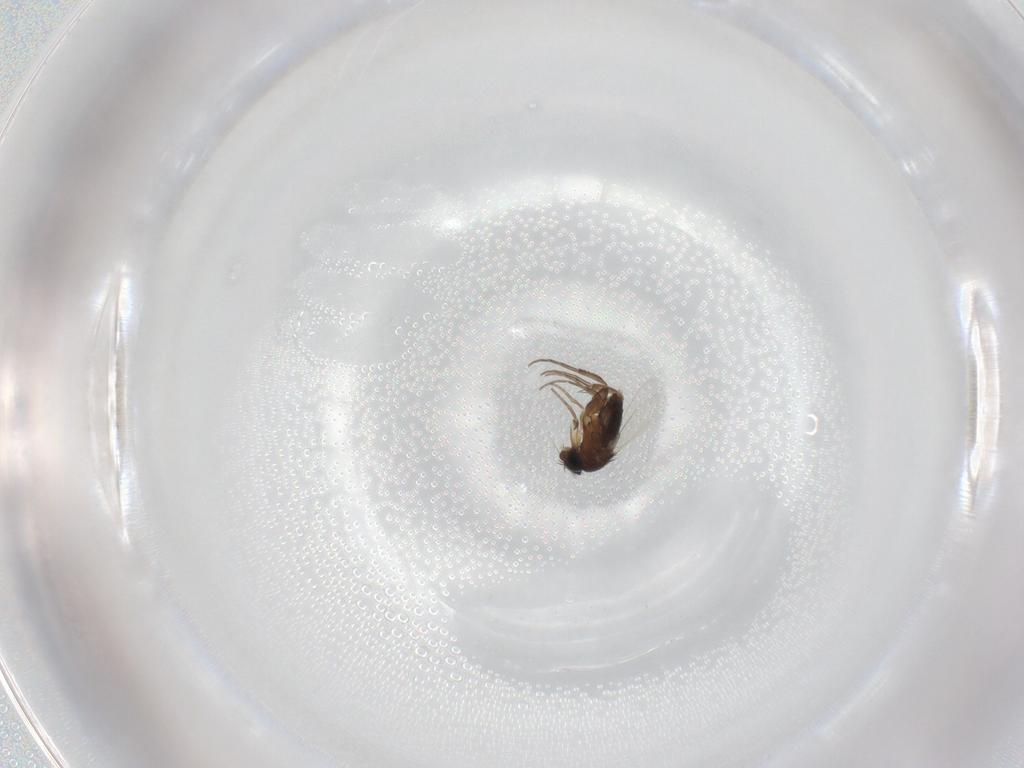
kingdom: Animalia
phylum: Arthropoda
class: Insecta
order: Diptera
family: Phoridae
